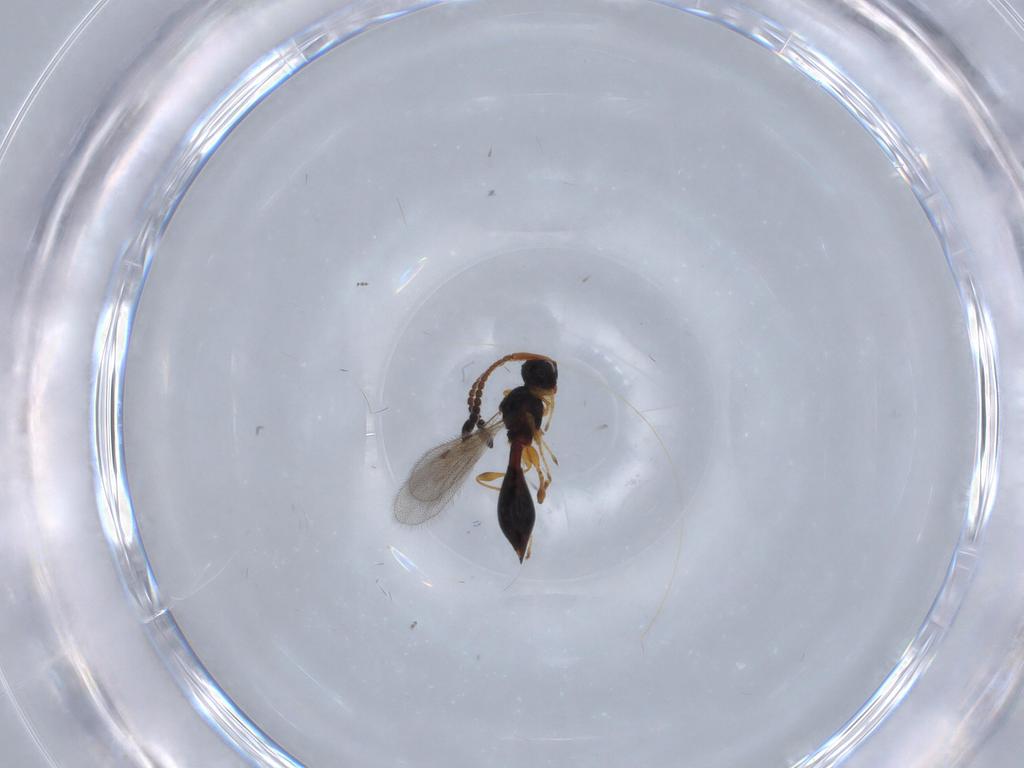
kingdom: Animalia
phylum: Arthropoda
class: Insecta
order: Hymenoptera
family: Diapriidae
